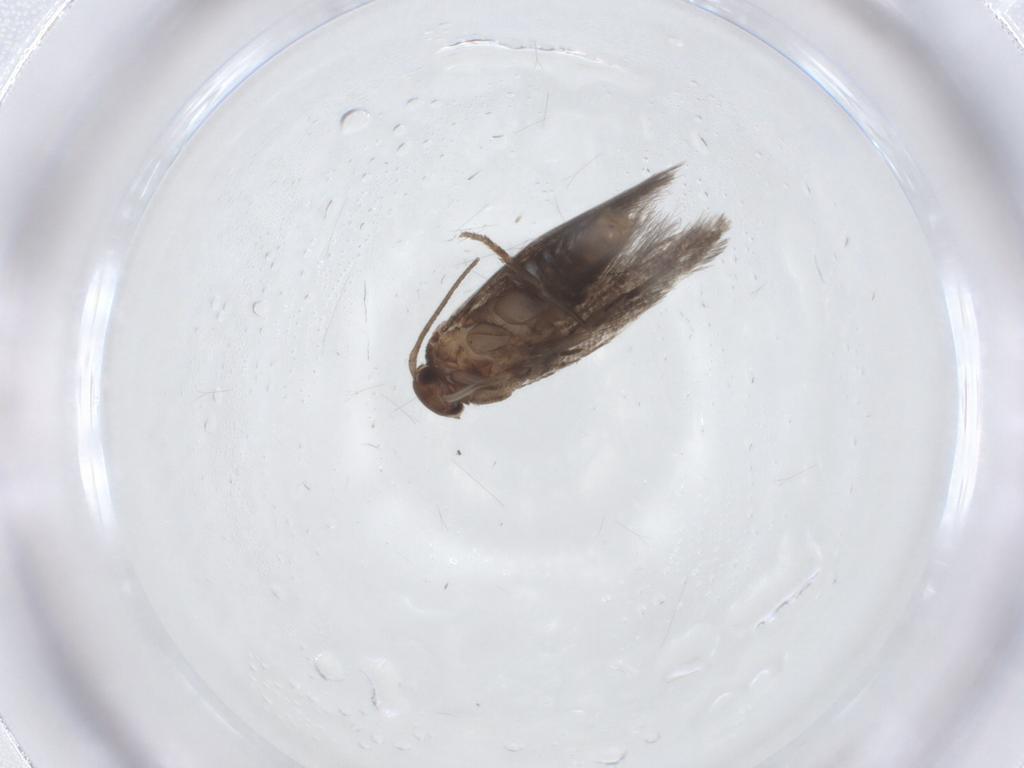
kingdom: Animalia
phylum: Arthropoda
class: Insecta
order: Lepidoptera
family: Elachistidae
